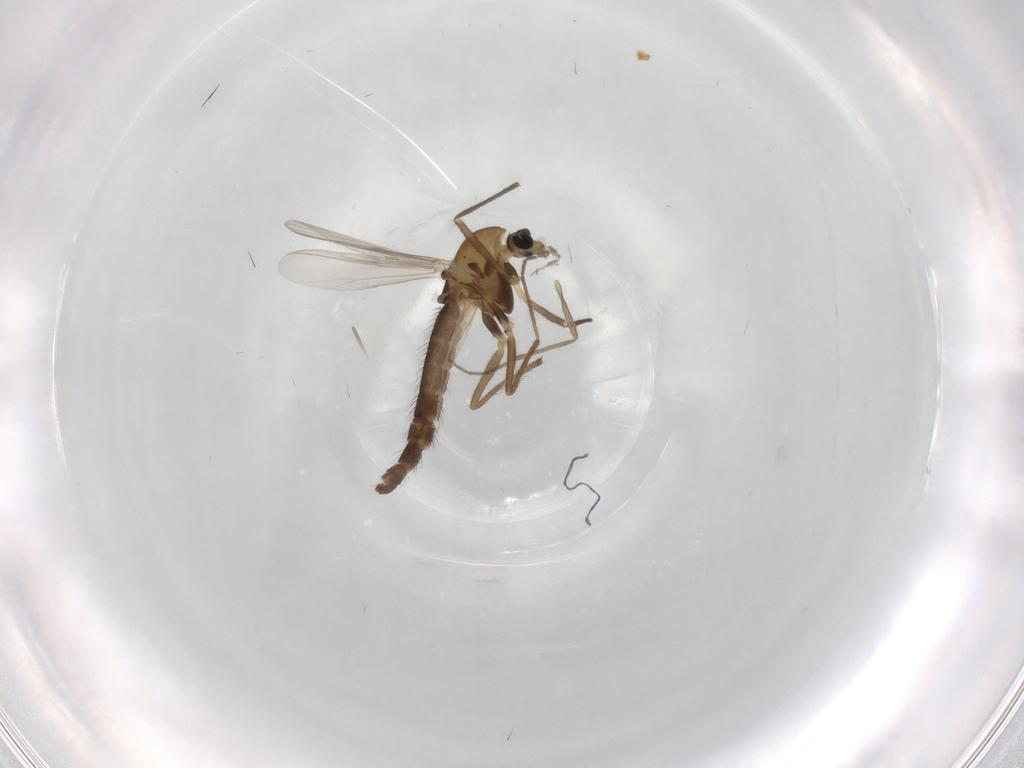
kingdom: Animalia
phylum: Arthropoda
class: Insecta
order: Diptera
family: Chironomidae
